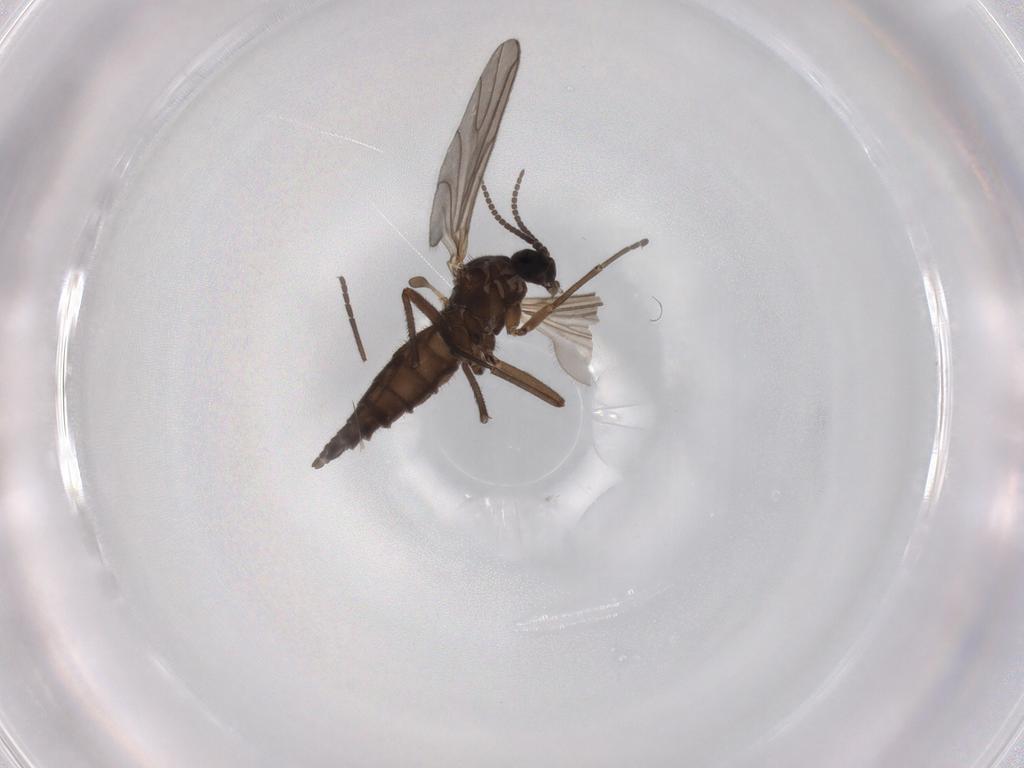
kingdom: Animalia
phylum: Arthropoda
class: Insecta
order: Diptera
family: Sciaridae
